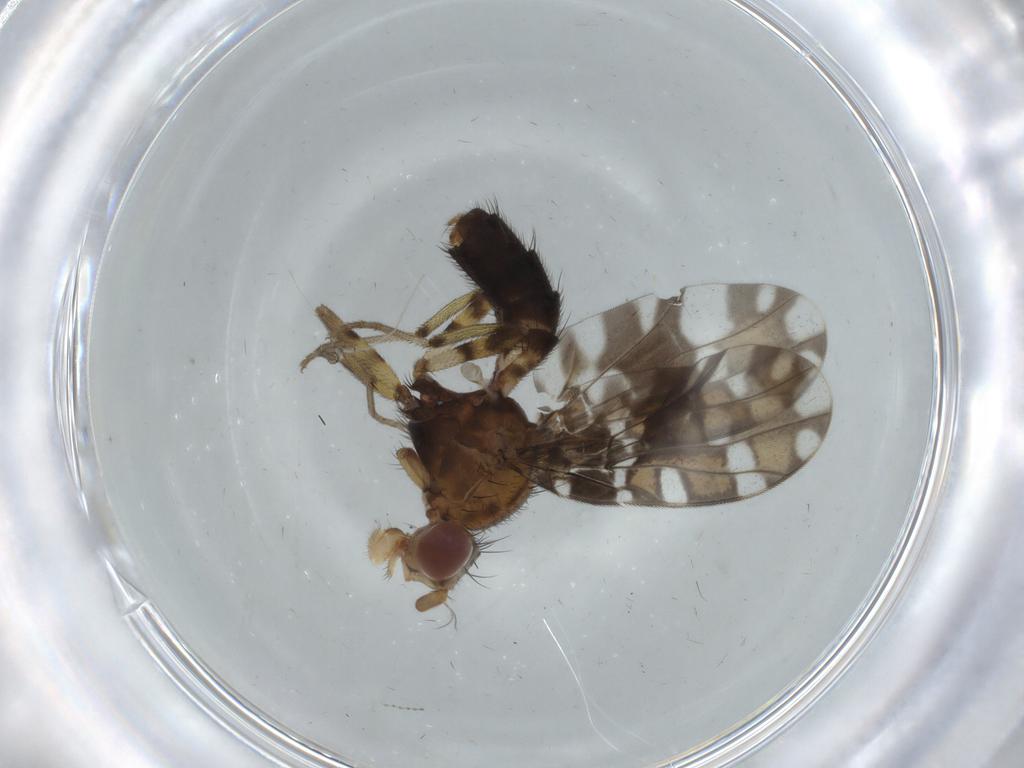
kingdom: Animalia
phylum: Arthropoda
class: Insecta
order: Diptera
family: Ulidiidae
